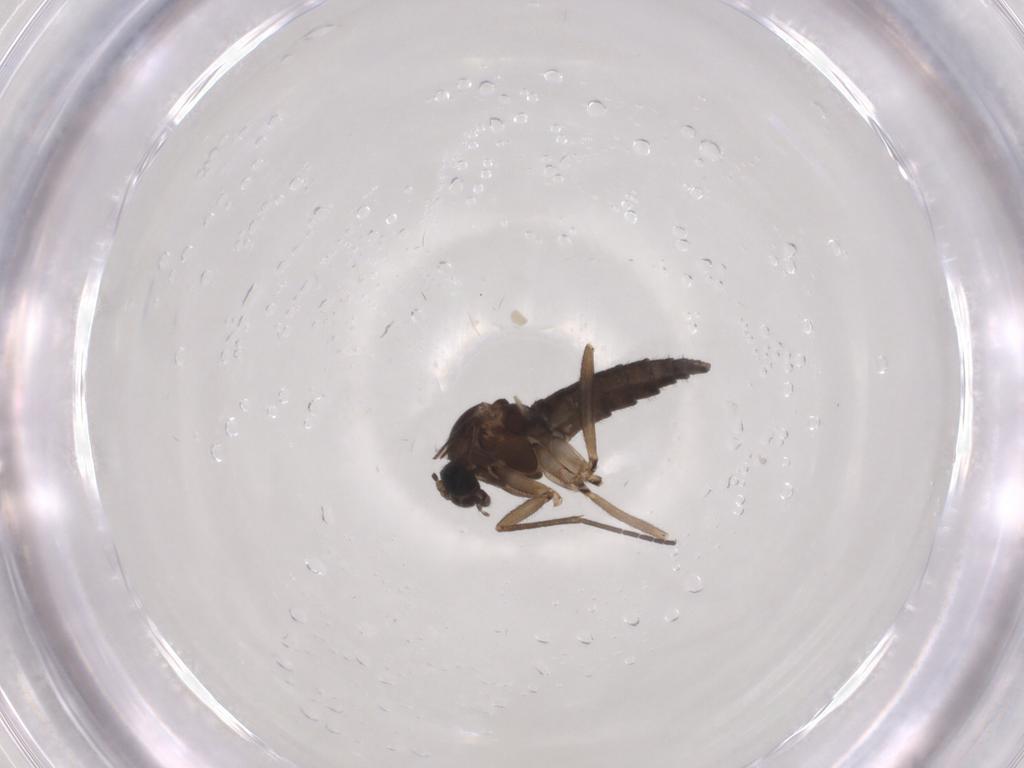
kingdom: Animalia
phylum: Arthropoda
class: Insecta
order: Diptera
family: Sciaridae
